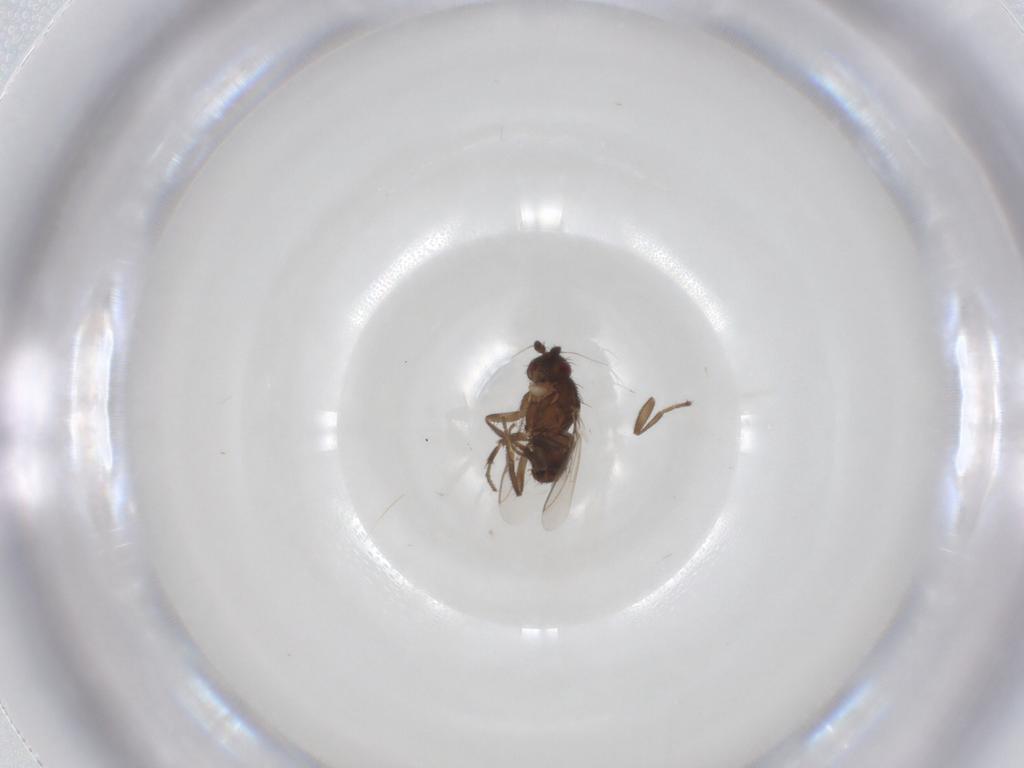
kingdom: Animalia
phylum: Arthropoda
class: Insecta
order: Diptera
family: Sphaeroceridae
